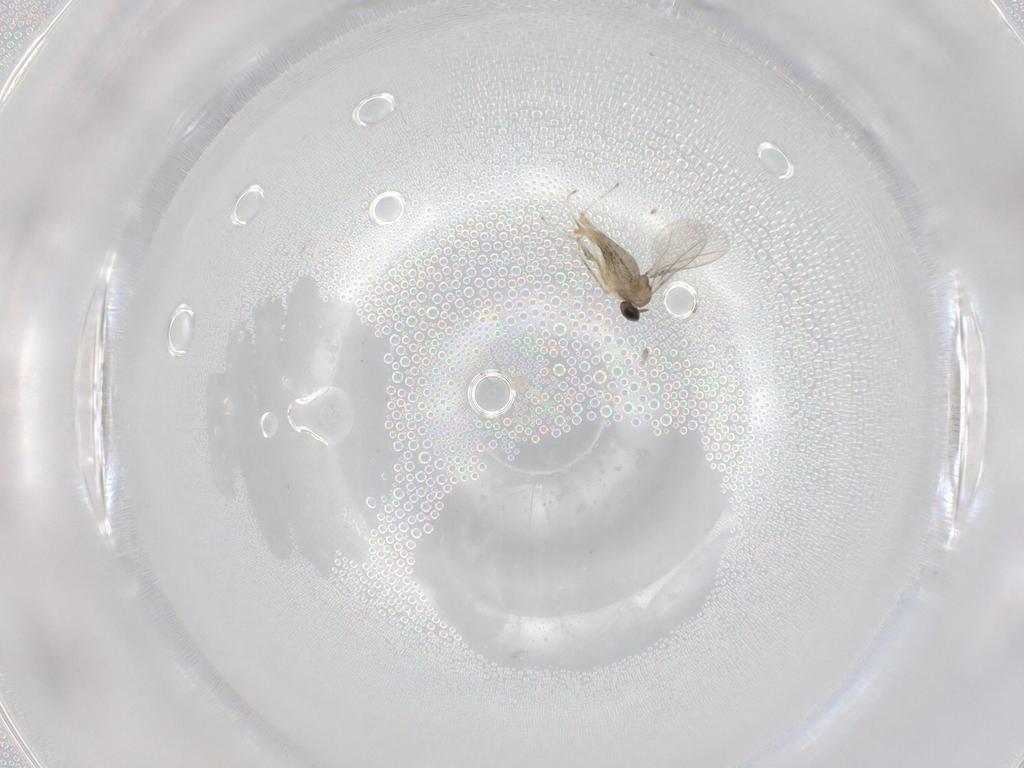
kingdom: Animalia
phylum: Arthropoda
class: Insecta
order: Diptera
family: Cecidomyiidae
